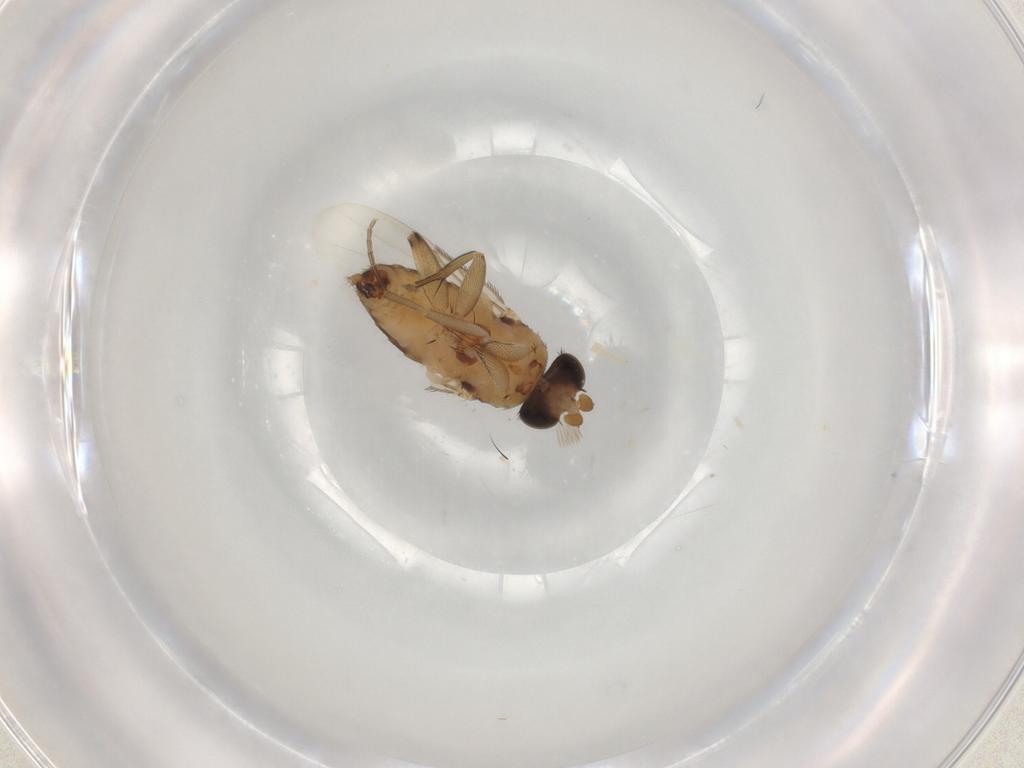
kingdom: Animalia
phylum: Arthropoda
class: Insecta
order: Diptera
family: Phoridae
